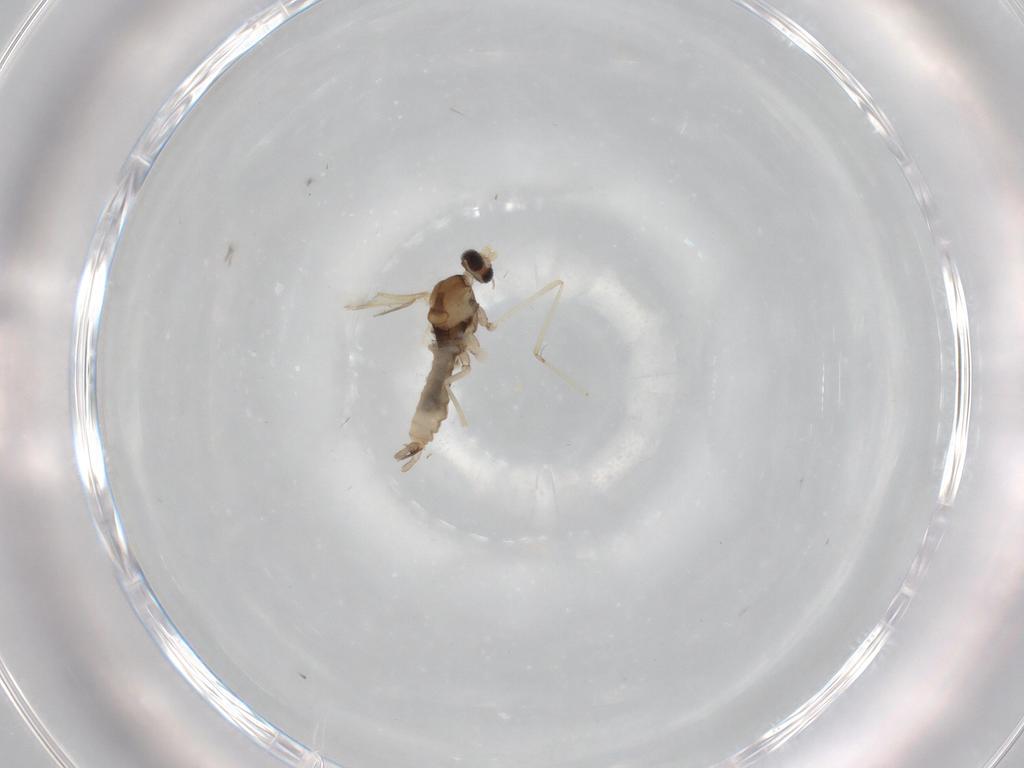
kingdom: Animalia
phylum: Arthropoda
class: Insecta
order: Diptera
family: Cecidomyiidae
